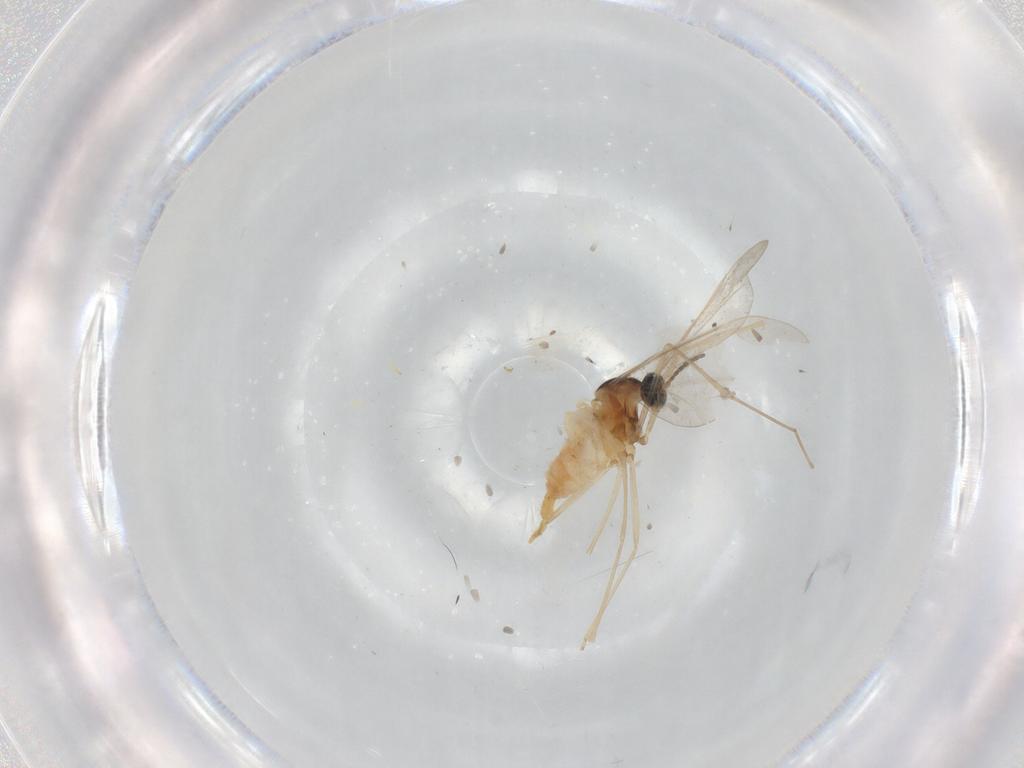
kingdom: Animalia
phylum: Arthropoda
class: Insecta
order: Diptera
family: Cecidomyiidae
